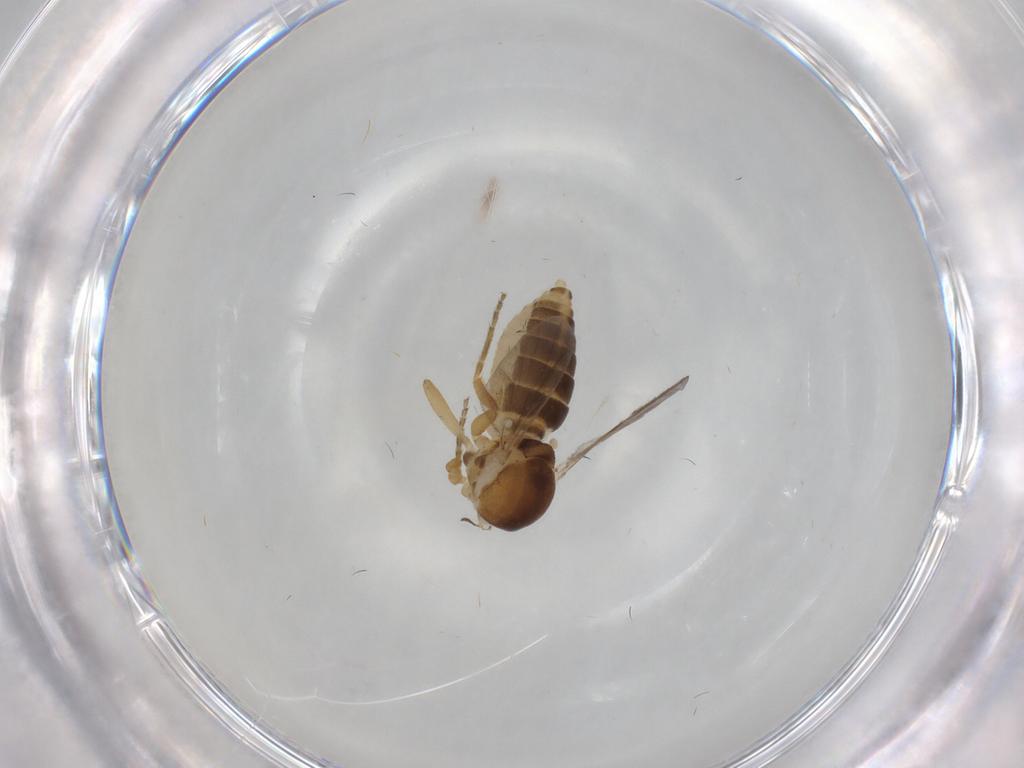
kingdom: Animalia
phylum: Arthropoda
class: Insecta
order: Diptera
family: Ceratopogonidae
